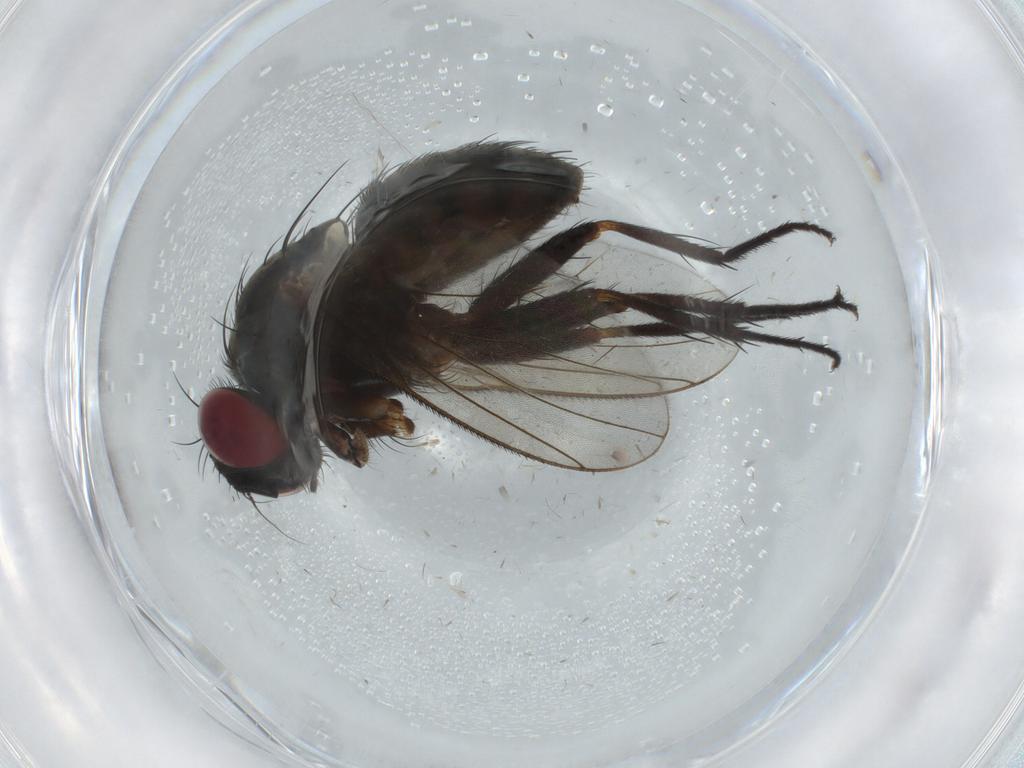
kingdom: Animalia
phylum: Arthropoda
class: Insecta
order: Diptera
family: Muscidae
